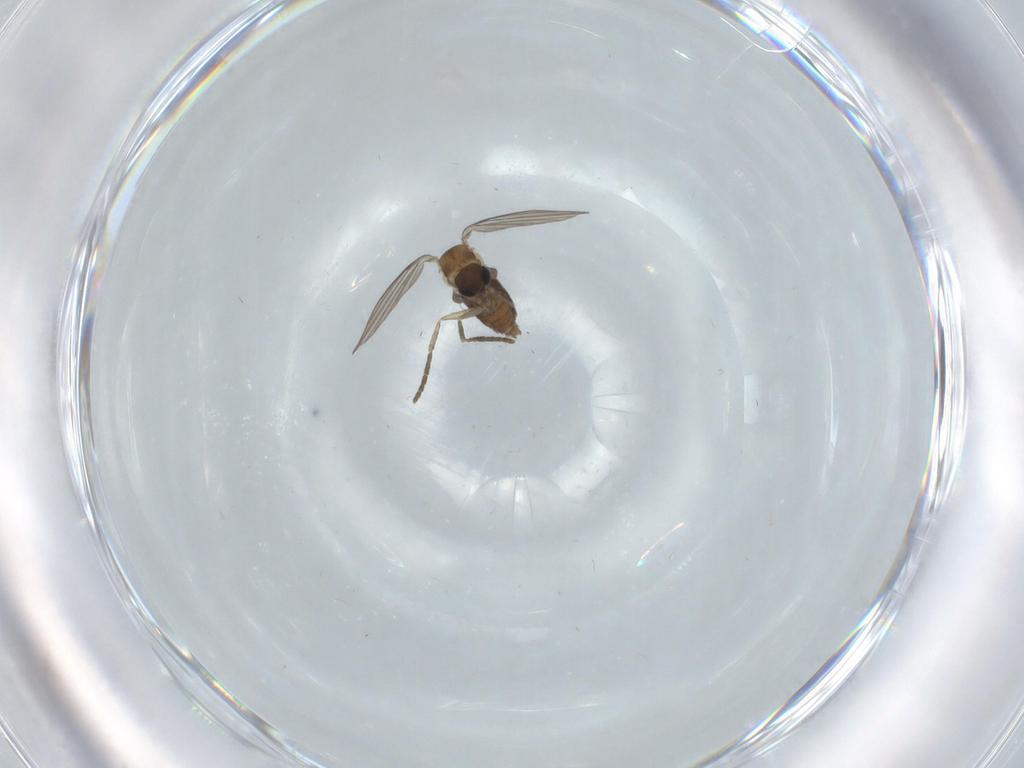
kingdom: Animalia
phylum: Arthropoda
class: Insecta
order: Diptera
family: Psychodidae
